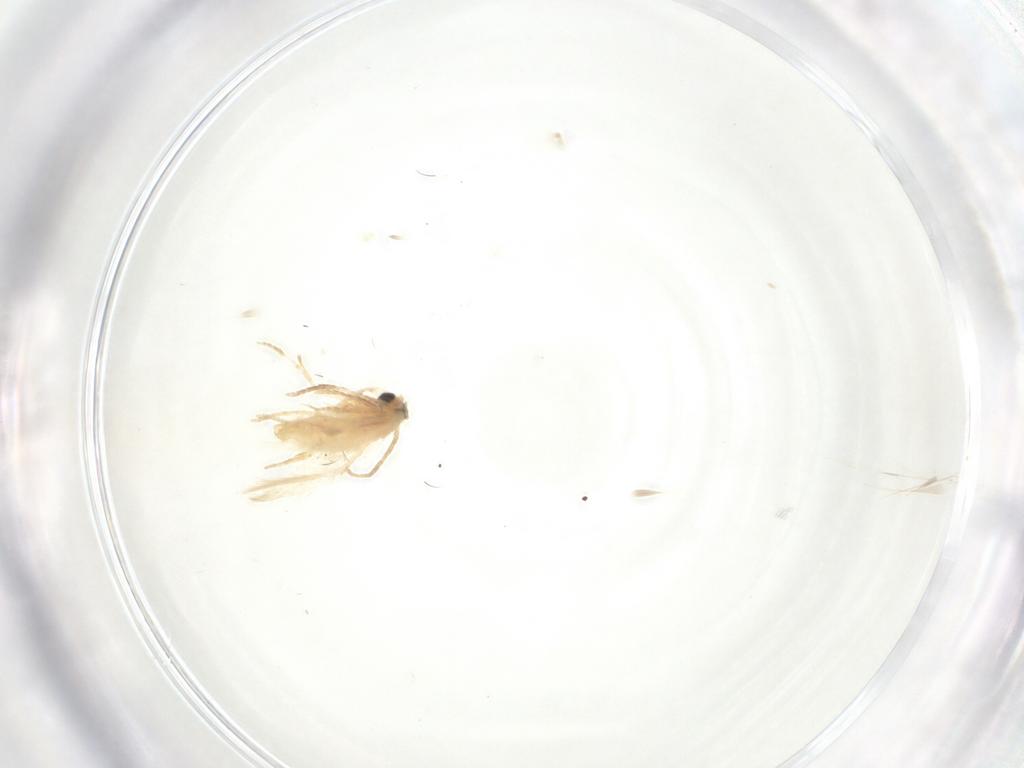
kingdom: Animalia
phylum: Arthropoda
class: Insecta
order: Lepidoptera
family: Nepticulidae
